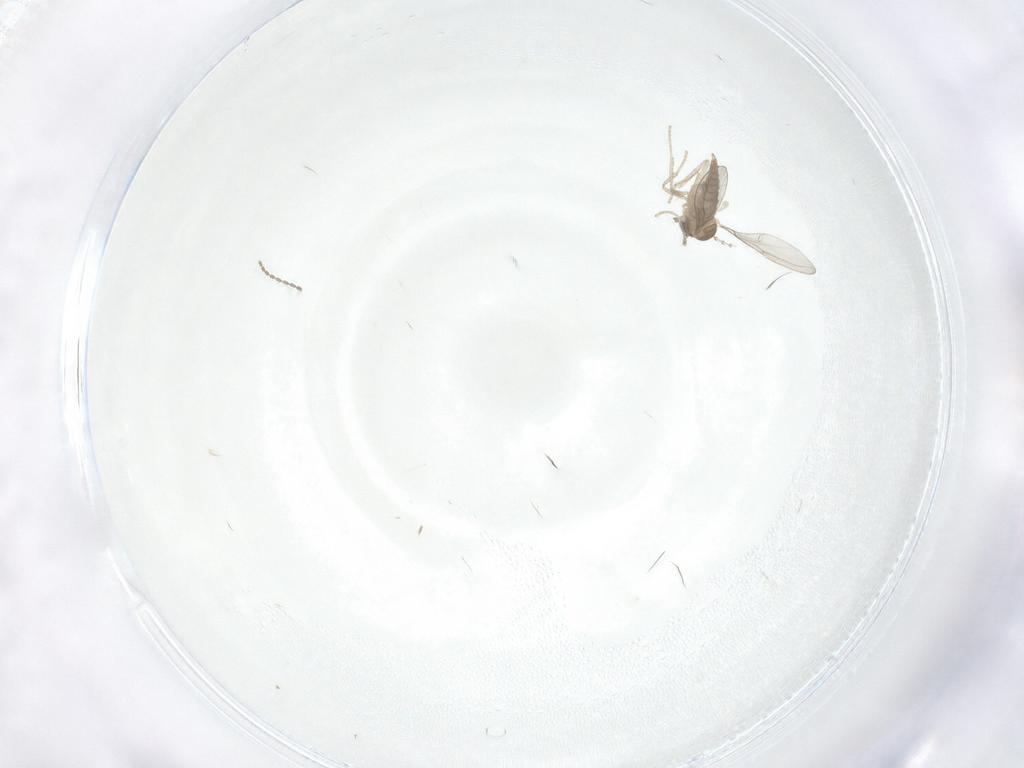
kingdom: Animalia
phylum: Arthropoda
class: Insecta
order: Diptera
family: Cecidomyiidae
